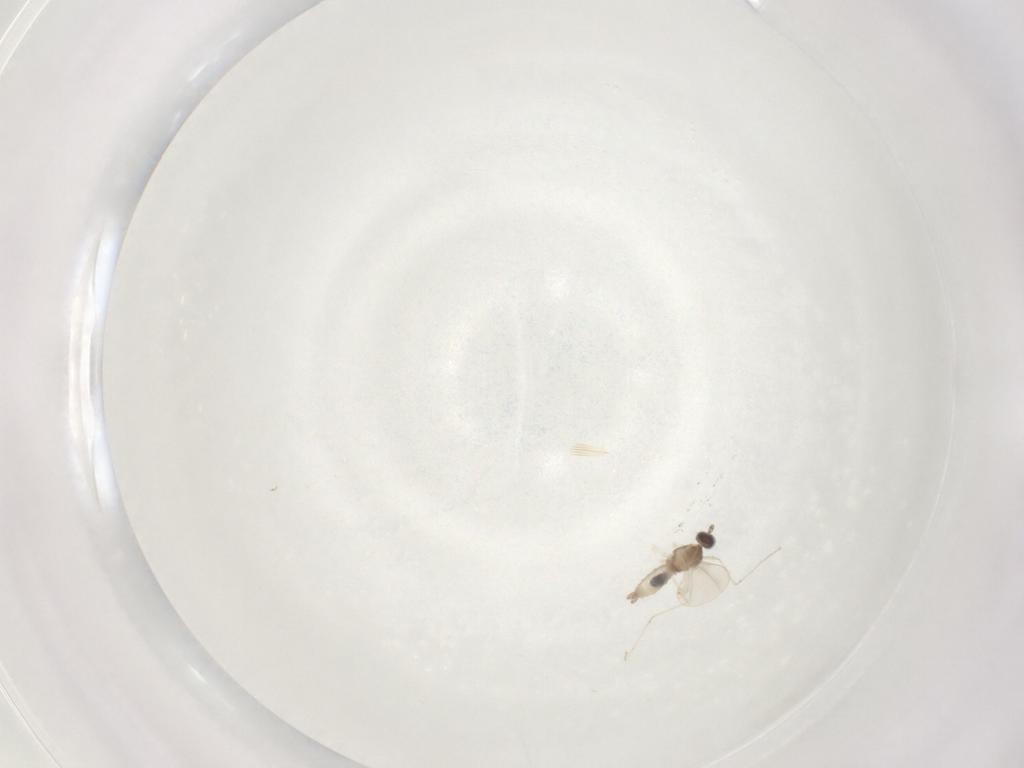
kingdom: Animalia
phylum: Arthropoda
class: Insecta
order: Diptera
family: Cecidomyiidae
